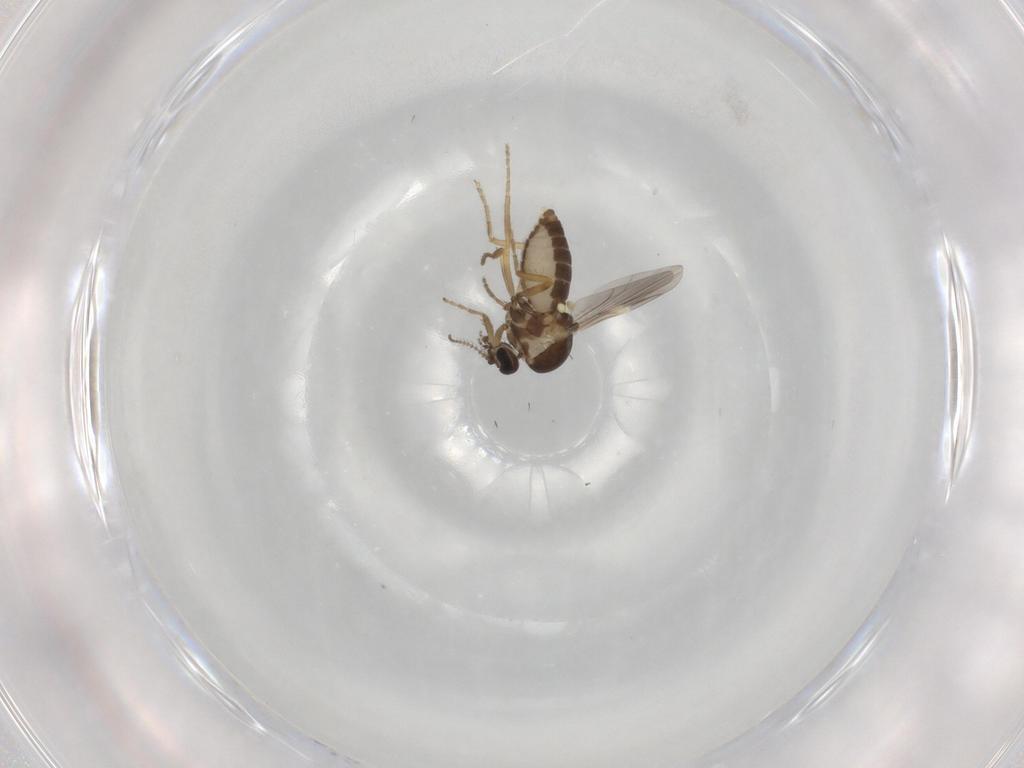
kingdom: Animalia
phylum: Arthropoda
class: Insecta
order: Diptera
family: Ceratopogonidae
